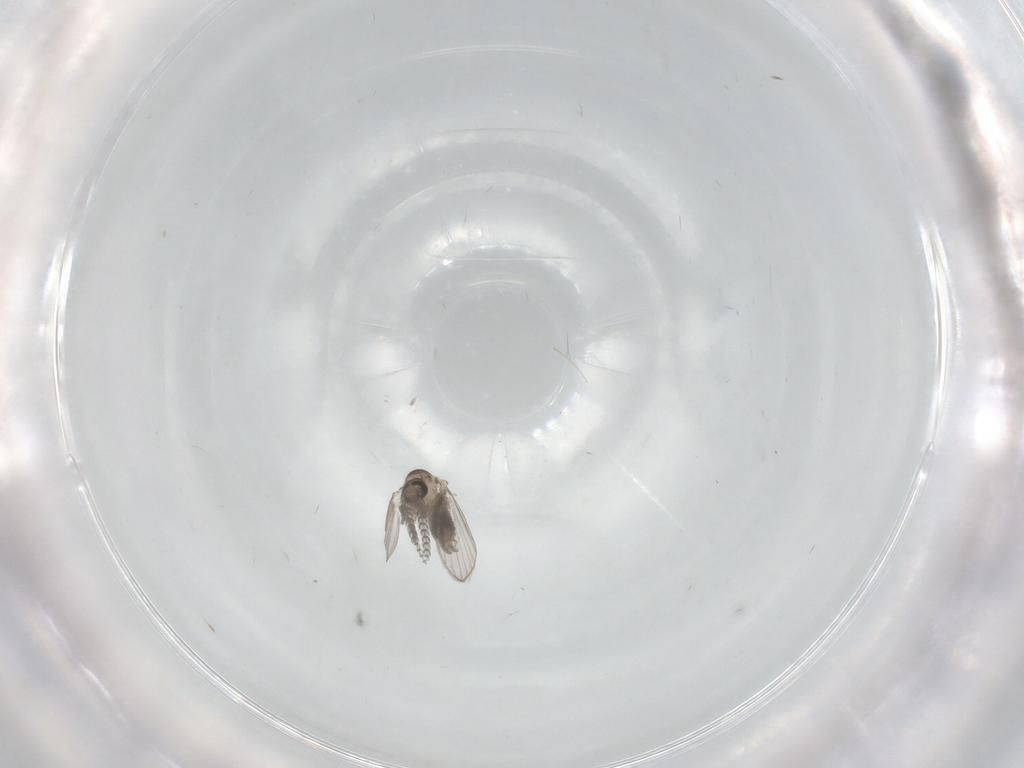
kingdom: Animalia
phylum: Arthropoda
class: Insecta
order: Diptera
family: Psychodidae
